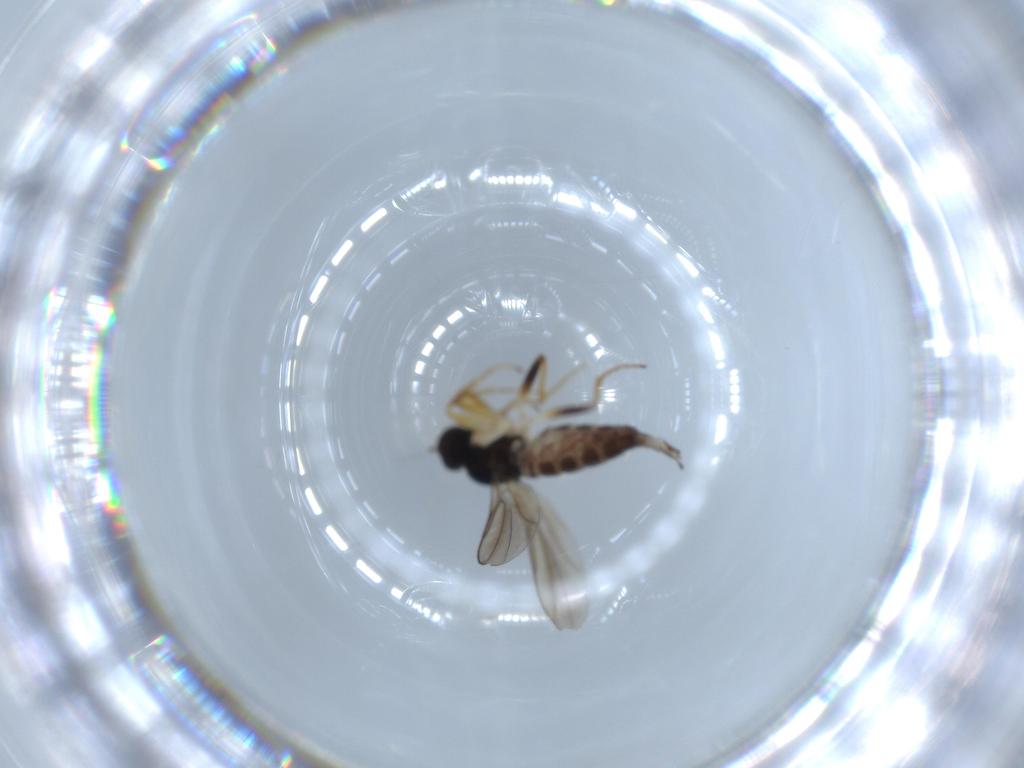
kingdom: Animalia
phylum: Arthropoda
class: Insecta
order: Diptera
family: Hybotidae
